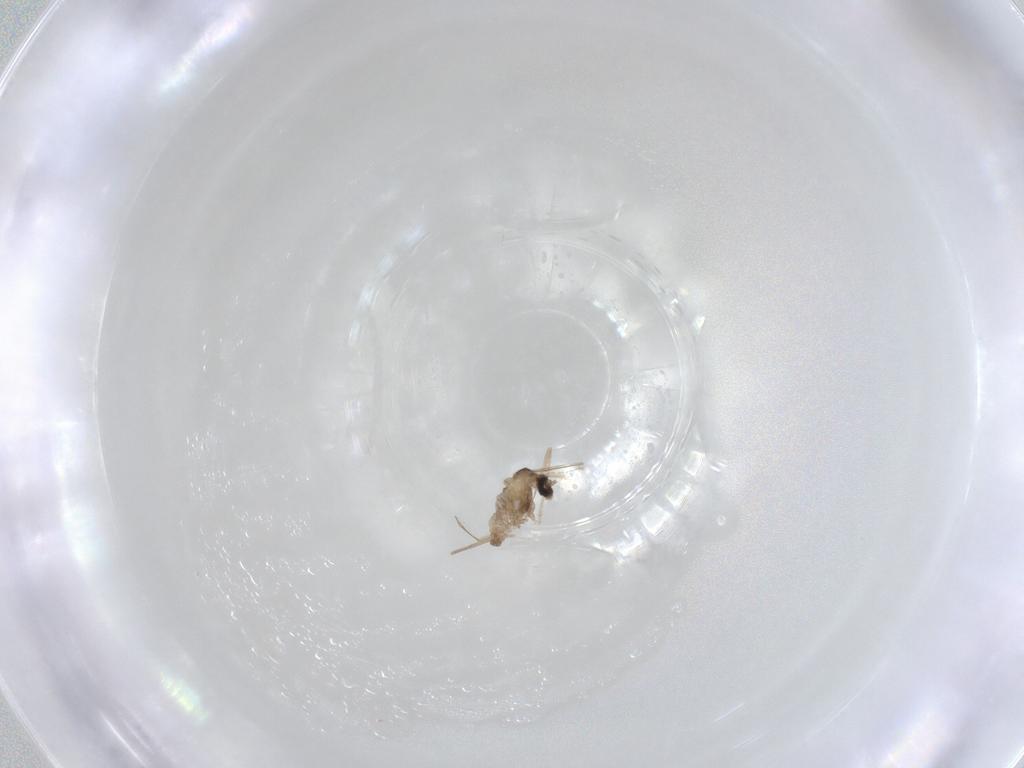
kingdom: Animalia
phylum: Arthropoda
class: Insecta
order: Diptera
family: Cecidomyiidae
